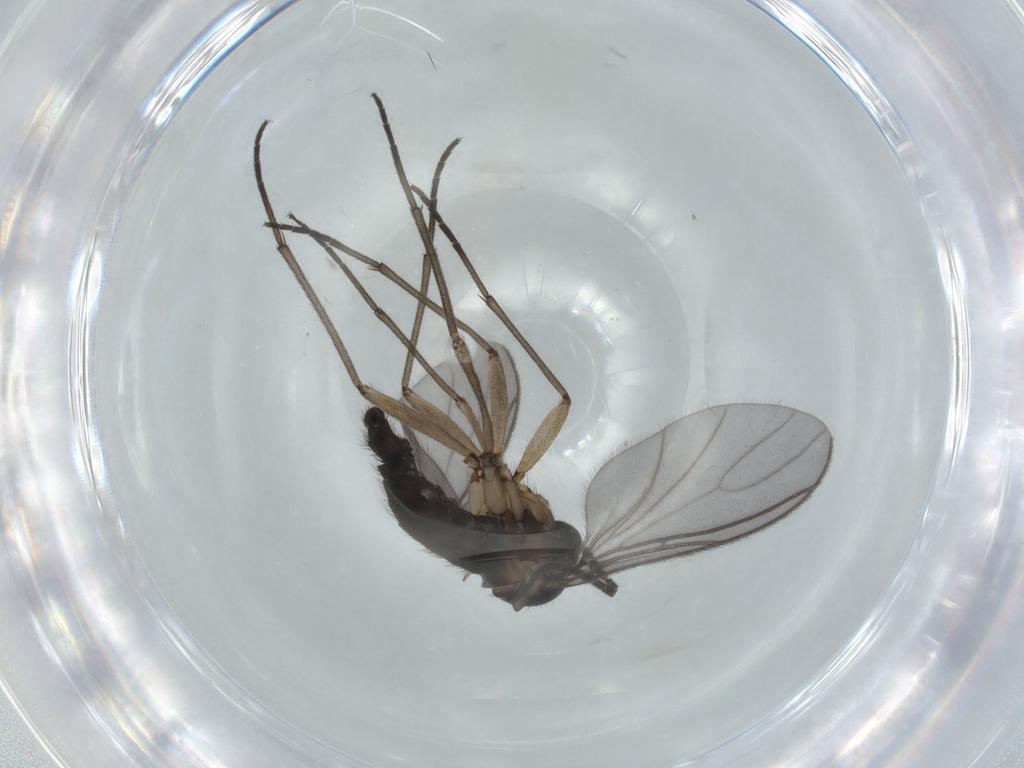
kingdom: Animalia
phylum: Arthropoda
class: Insecta
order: Diptera
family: Sciaridae
